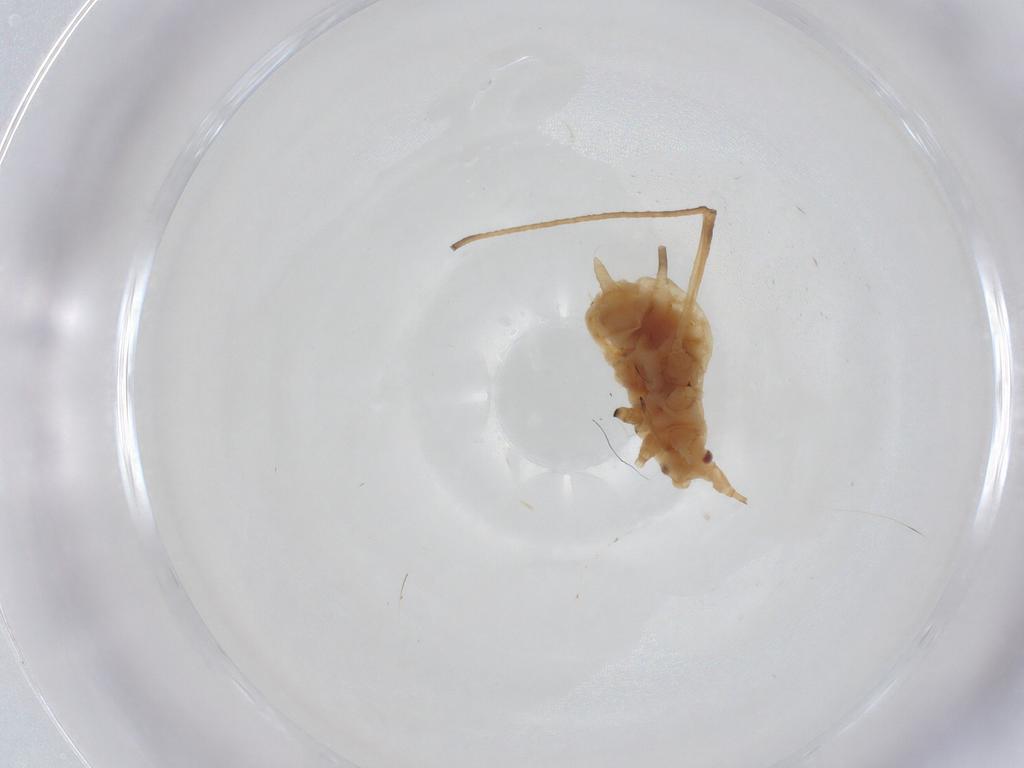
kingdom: Animalia
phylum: Arthropoda
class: Insecta
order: Hemiptera
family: Aphididae
